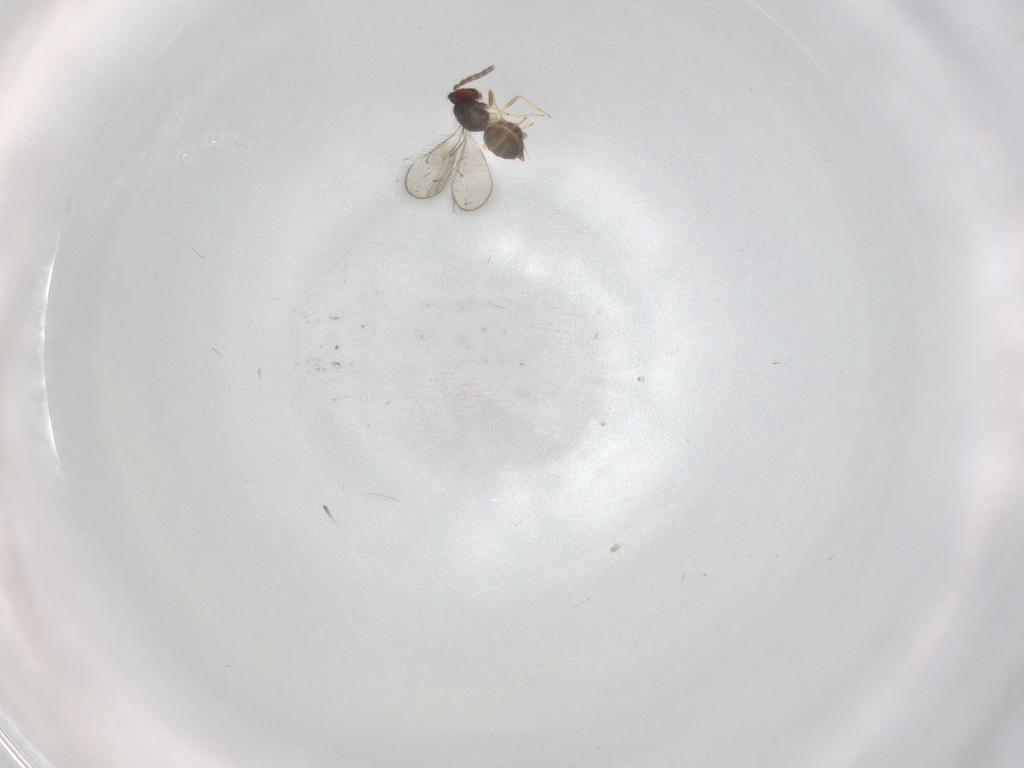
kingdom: Animalia
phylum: Arthropoda
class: Insecta
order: Hymenoptera
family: Eulophidae
